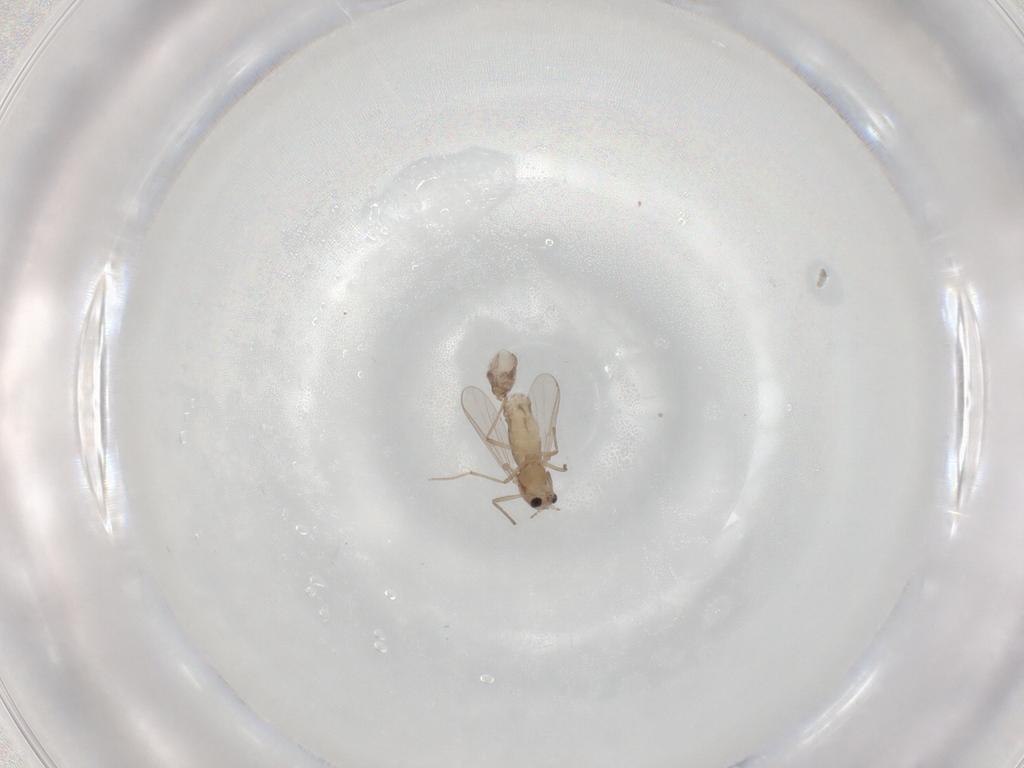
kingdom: Animalia
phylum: Arthropoda
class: Insecta
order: Diptera
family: Chironomidae
